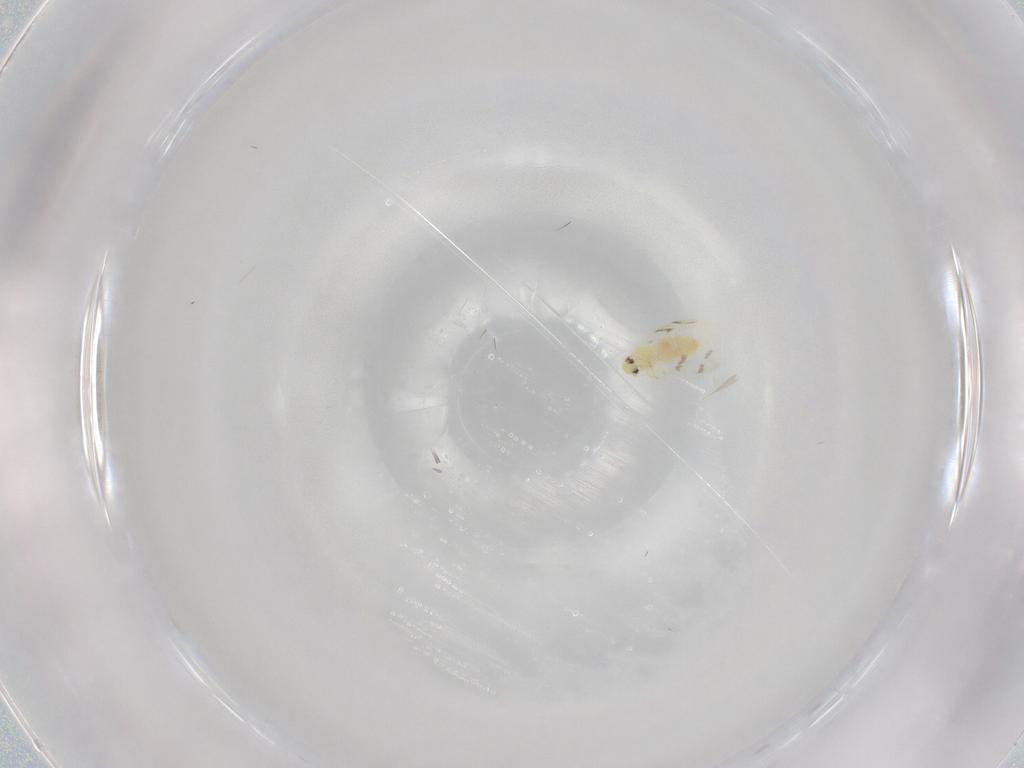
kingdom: Animalia
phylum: Arthropoda
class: Insecta
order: Hemiptera
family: Aleyrodidae
